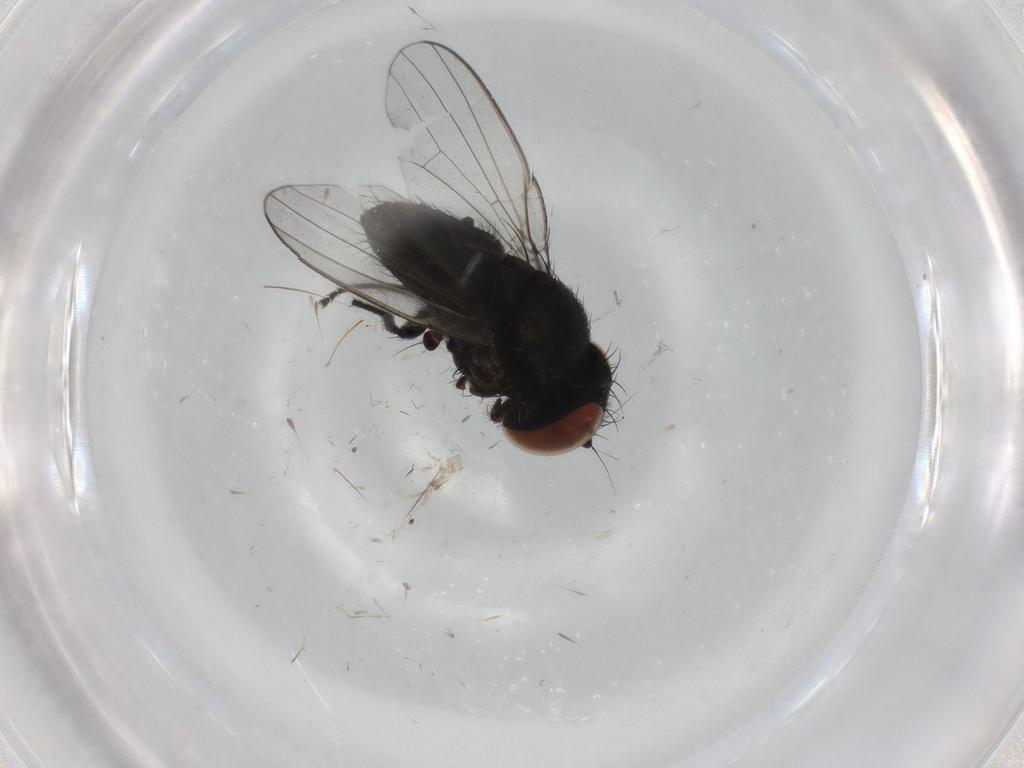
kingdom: Animalia
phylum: Arthropoda
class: Insecta
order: Diptera
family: Milichiidae
